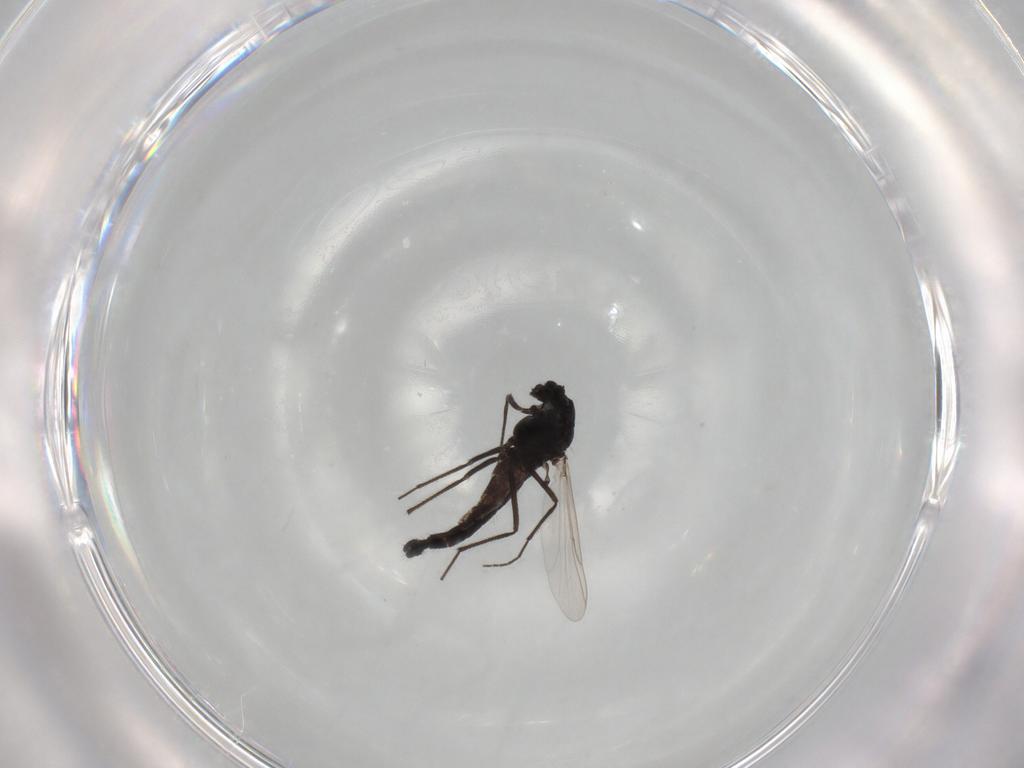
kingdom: Animalia
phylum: Arthropoda
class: Insecta
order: Diptera
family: Chironomidae
